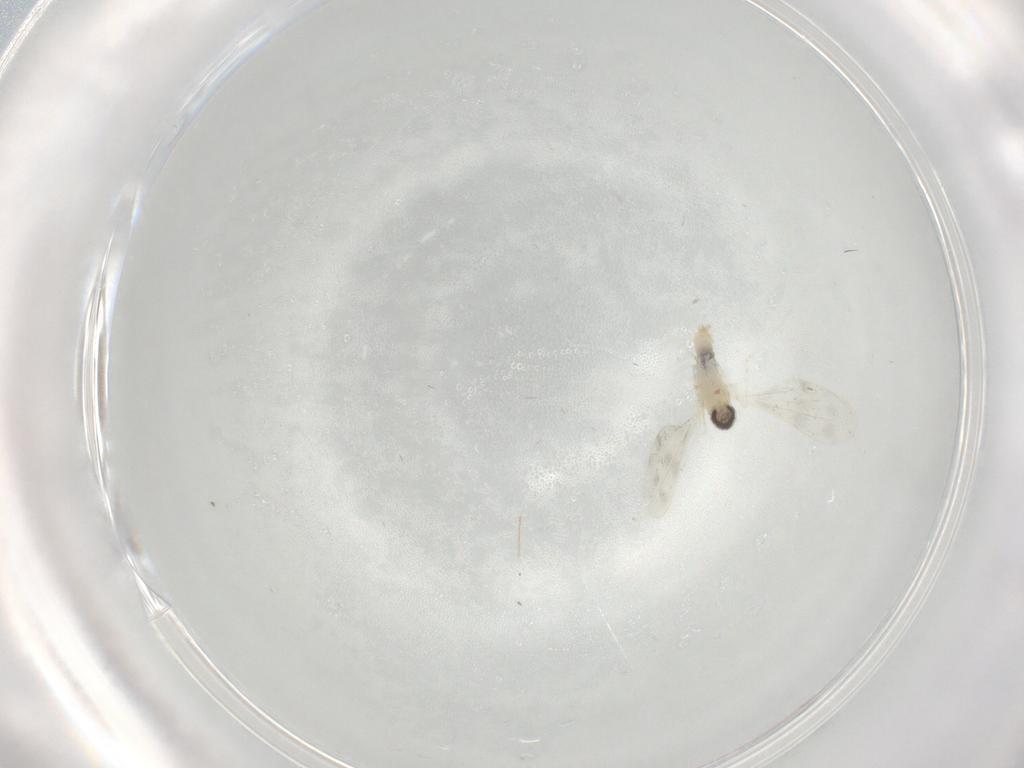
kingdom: Animalia
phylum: Arthropoda
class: Insecta
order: Diptera
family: Cecidomyiidae
